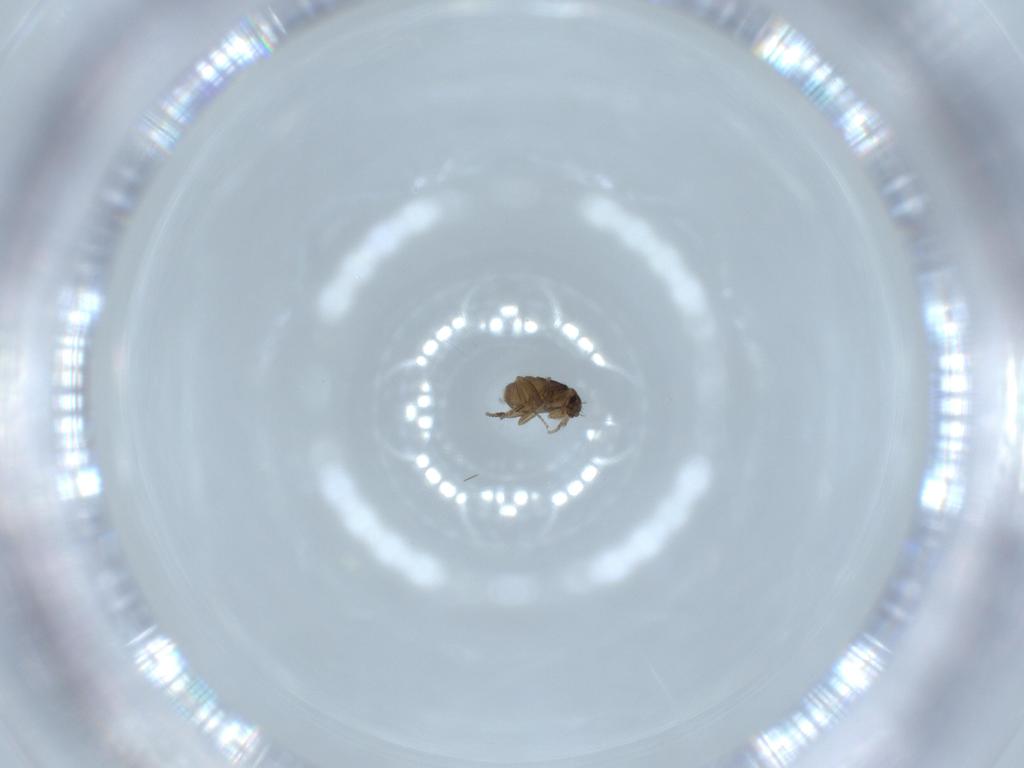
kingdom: Animalia
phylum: Arthropoda
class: Insecta
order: Diptera
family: Phoridae
